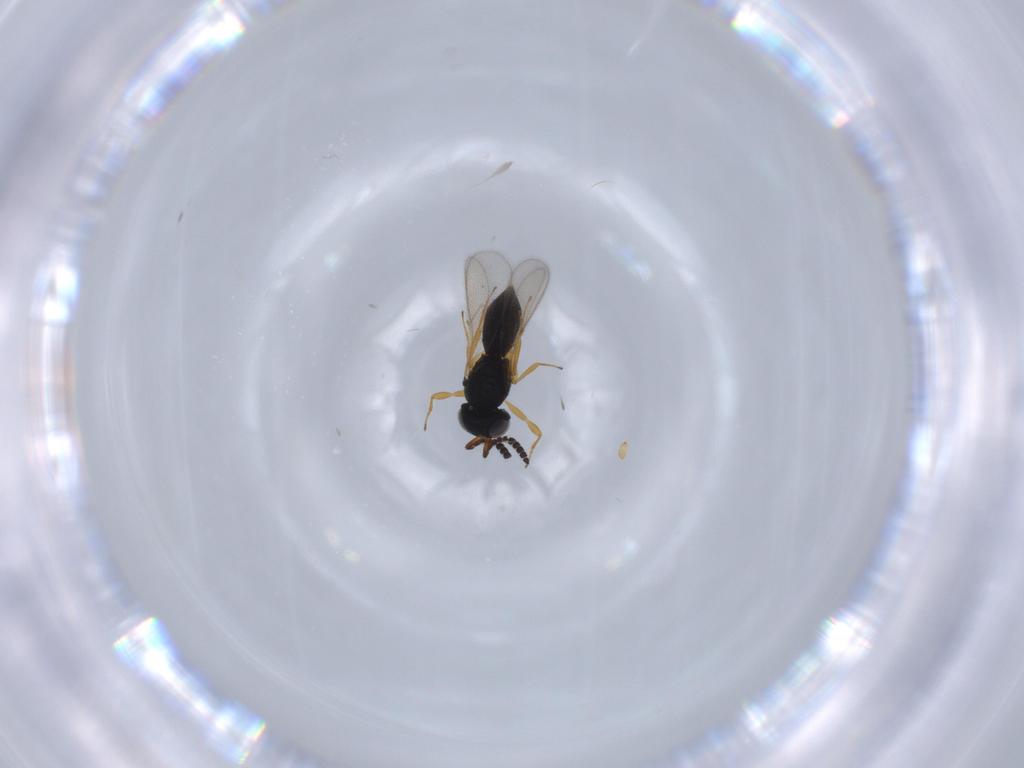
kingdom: Animalia
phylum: Arthropoda
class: Insecta
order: Hymenoptera
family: Scelionidae
